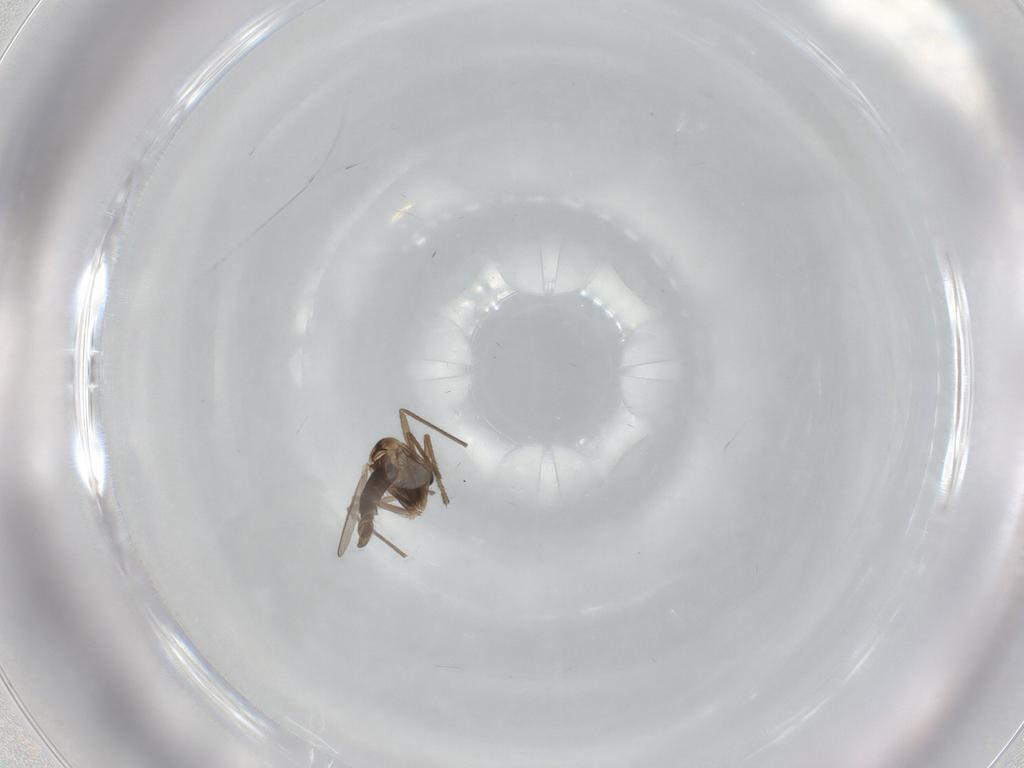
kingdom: Animalia
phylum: Arthropoda
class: Insecta
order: Diptera
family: Chironomidae
